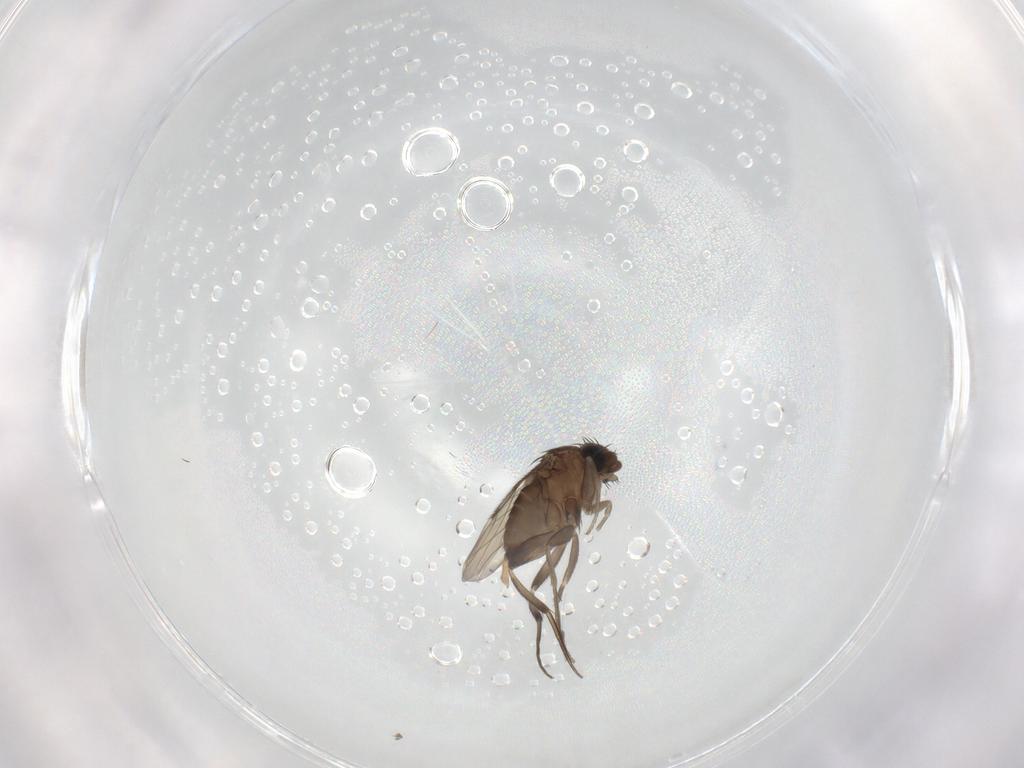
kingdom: Animalia
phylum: Arthropoda
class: Insecta
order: Diptera
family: Phoridae
